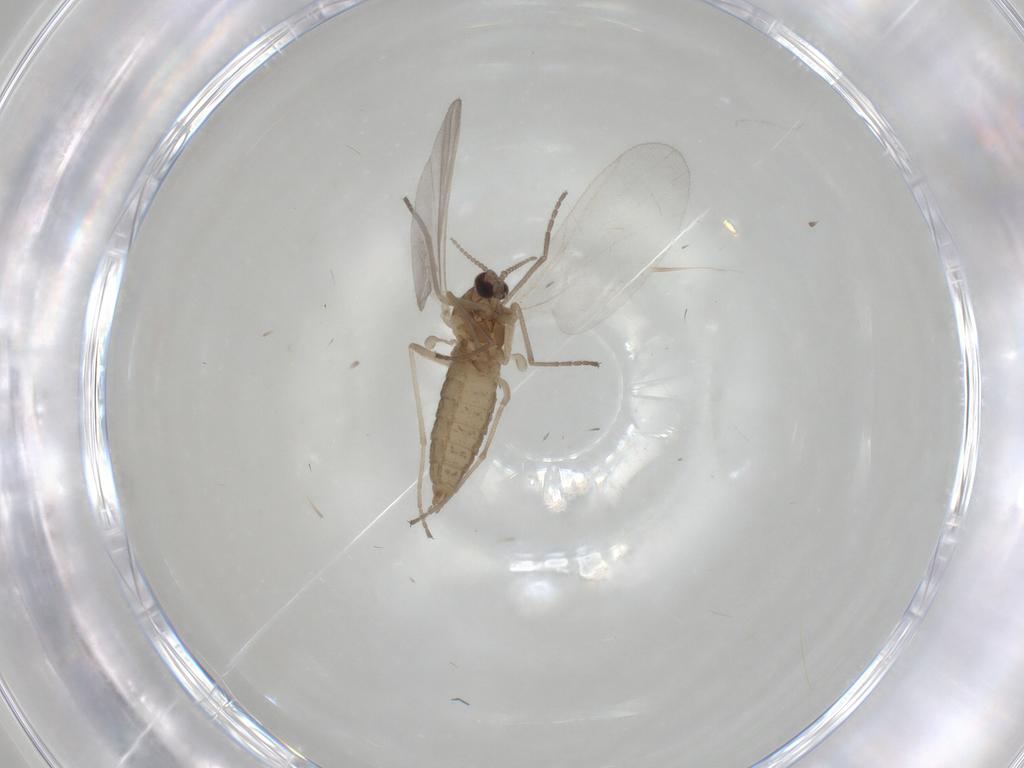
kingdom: Animalia
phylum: Arthropoda
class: Insecta
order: Diptera
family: Cecidomyiidae
